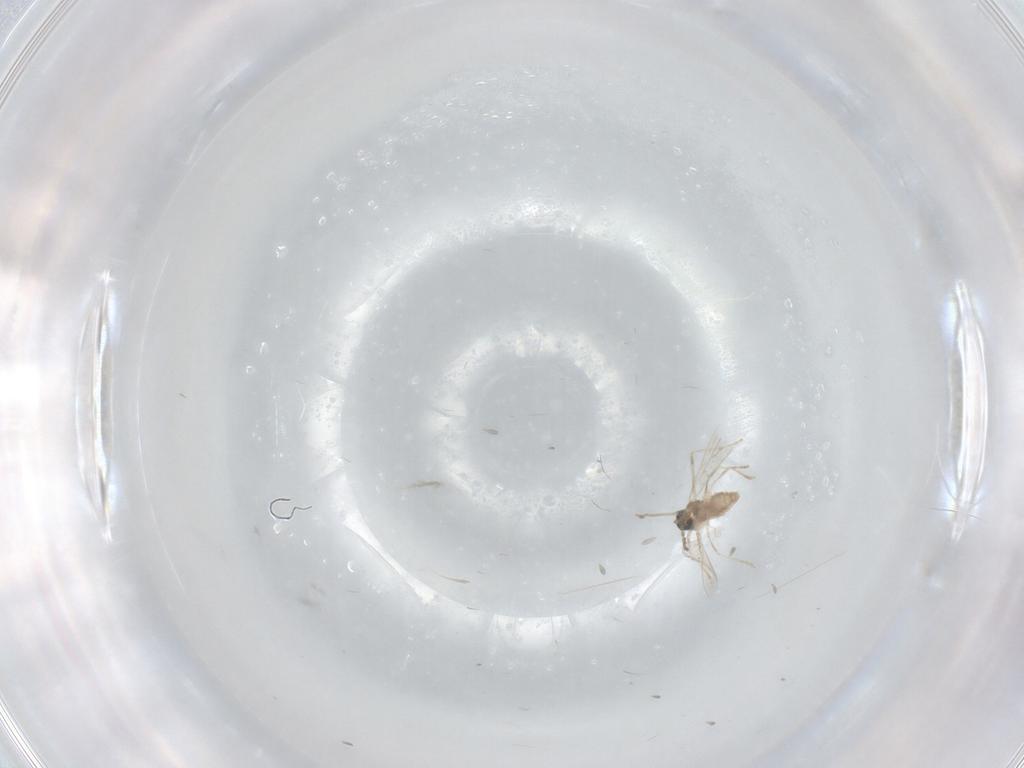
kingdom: Animalia
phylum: Arthropoda
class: Insecta
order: Diptera
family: Cecidomyiidae
